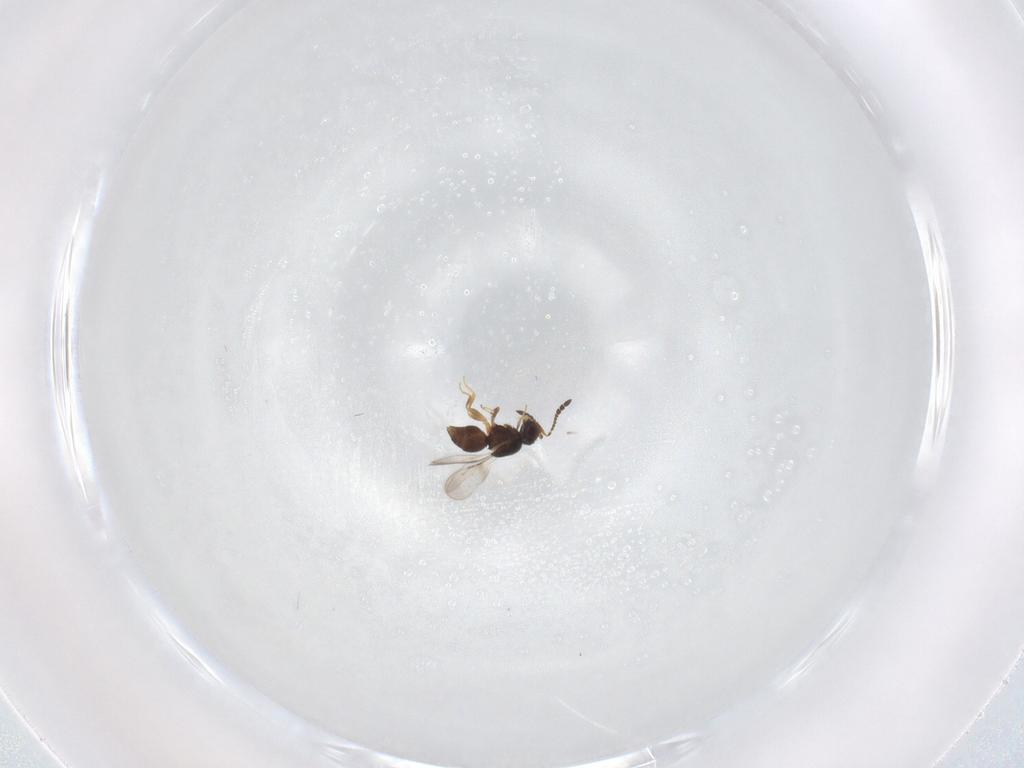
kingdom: Animalia
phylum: Arthropoda
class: Insecta
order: Hymenoptera
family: Ceraphronidae
